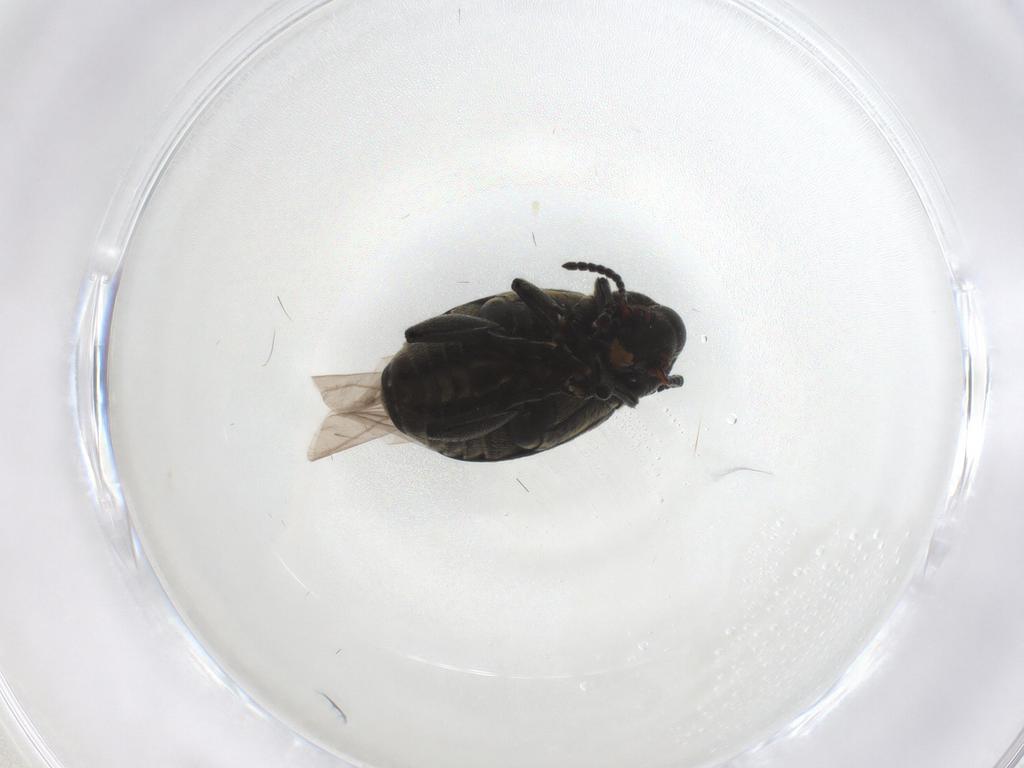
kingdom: Animalia
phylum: Arthropoda
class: Insecta
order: Coleoptera
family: Chrysomelidae
